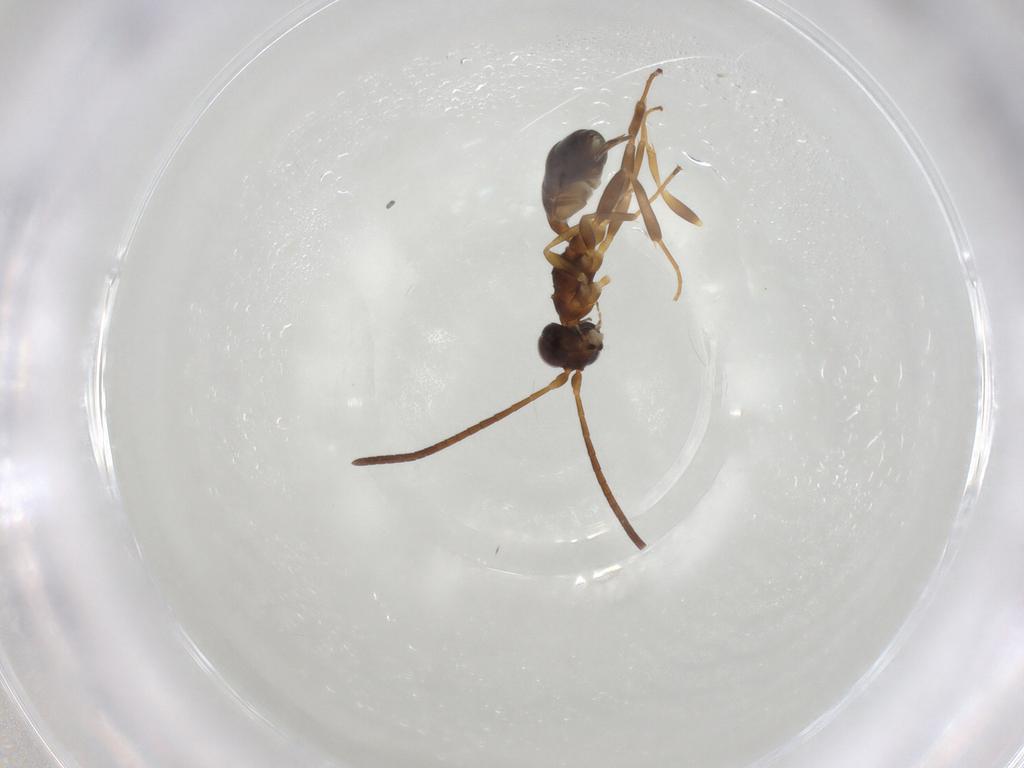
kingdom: Animalia
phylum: Arthropoda
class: Insecta
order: Hymenoptera
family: Ichneumonidae
